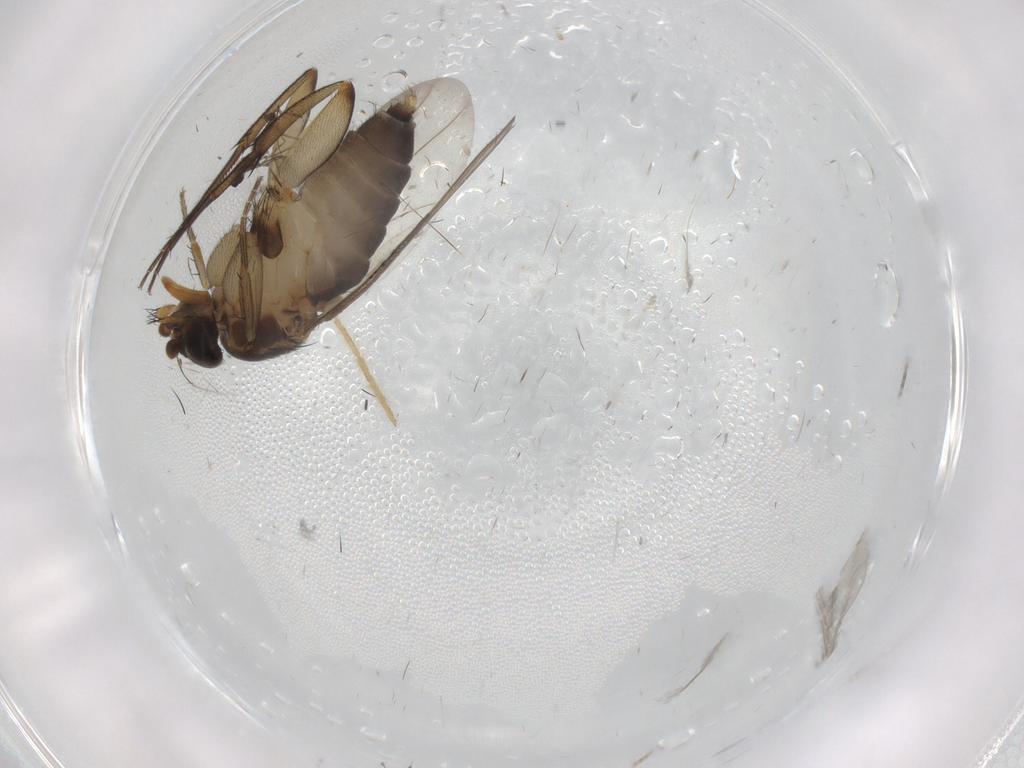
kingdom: Animalia
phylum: Arthropoda
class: Insecta
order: Diptera
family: Cecidomyiidae
